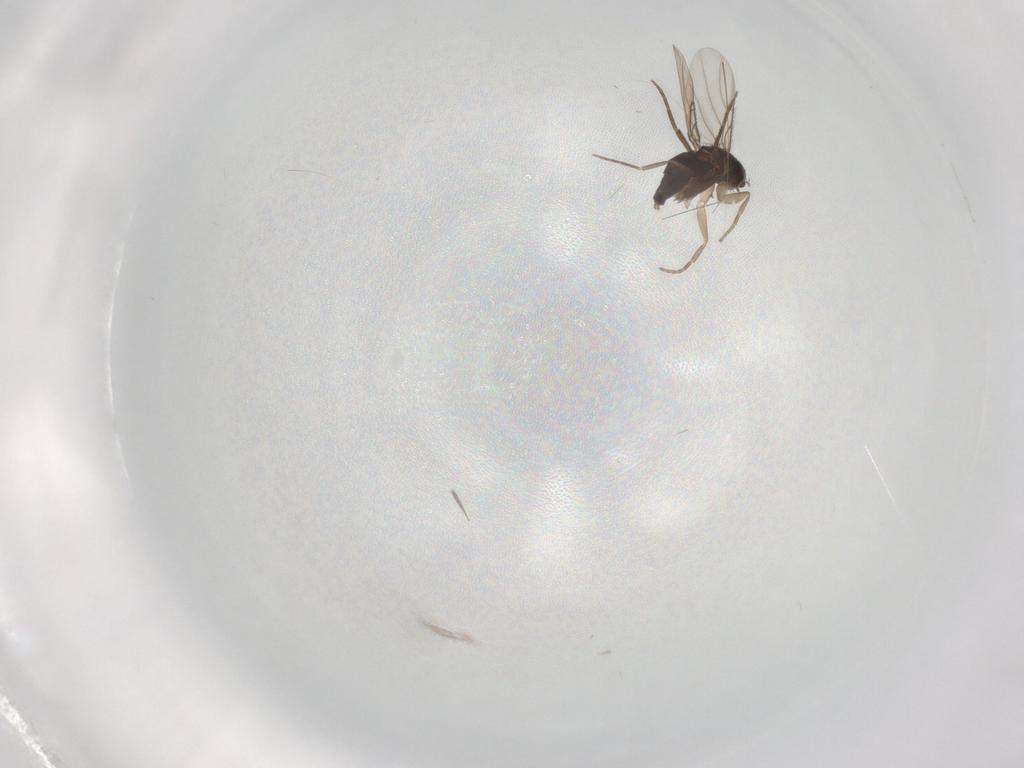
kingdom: Animalia
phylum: Arthropoda
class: Insecta
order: Diptera
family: Phoridae
